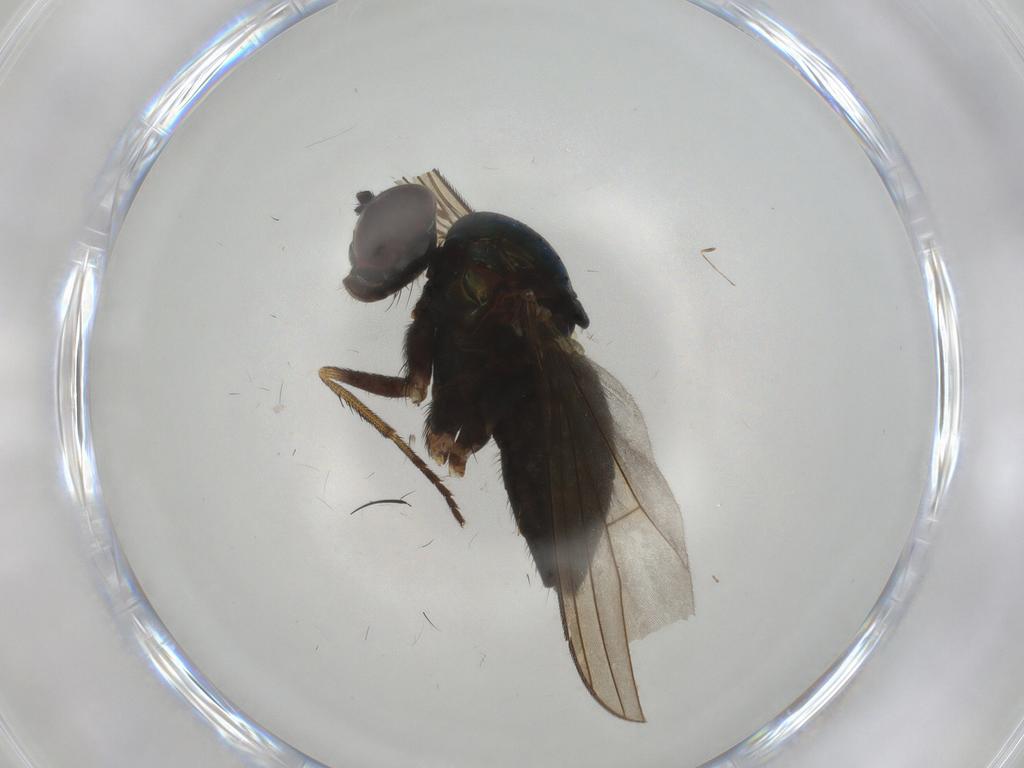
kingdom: Animalia
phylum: Arthropoda
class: Insecta
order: Diptera
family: Dolichopodidae
